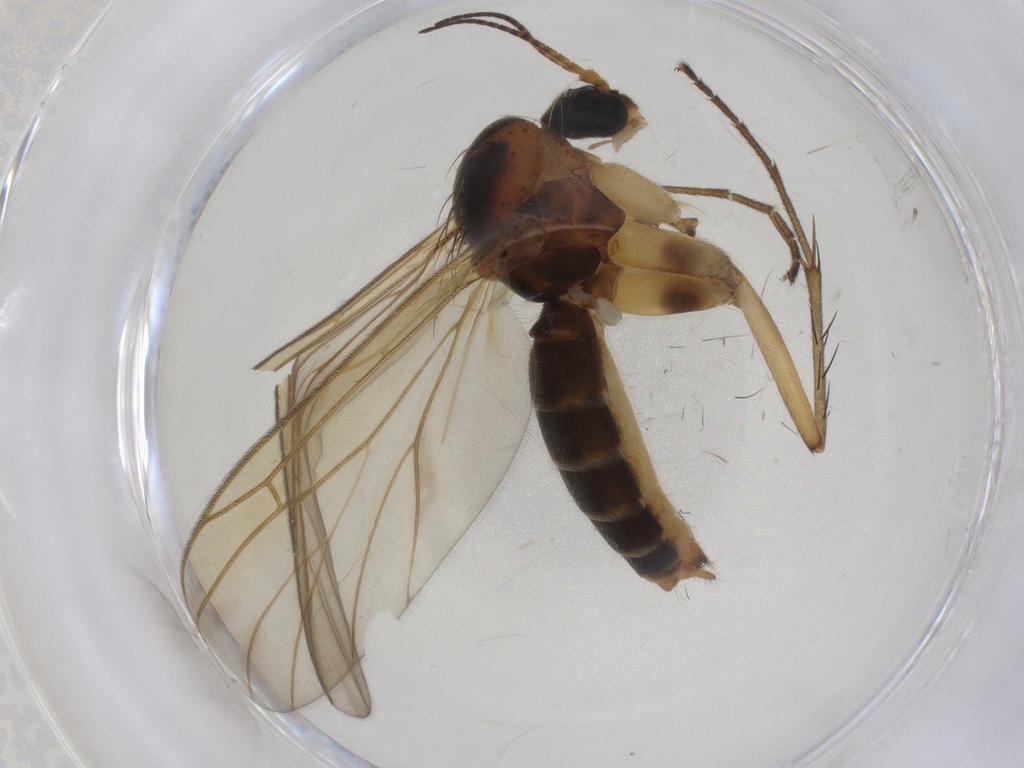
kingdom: Animalia
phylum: Arthropoda
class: Insecta
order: Diptera
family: Mycetophilidae
